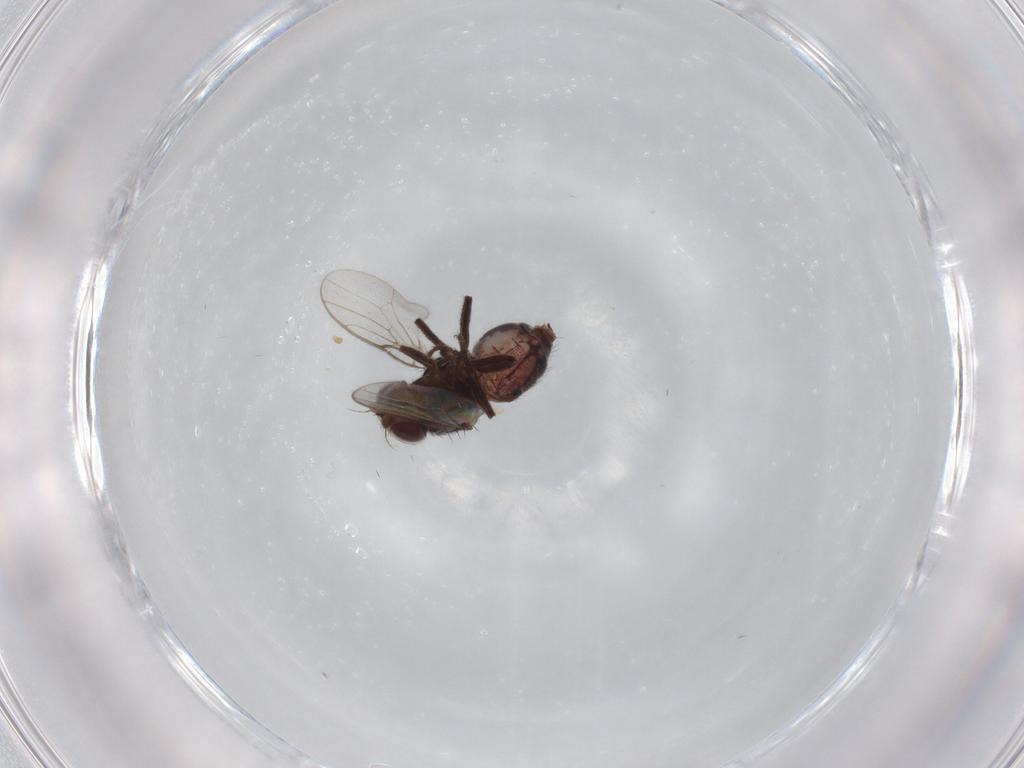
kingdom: Animalia
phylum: Arthropoda
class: Insecta
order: Diptera
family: Chloropidae
